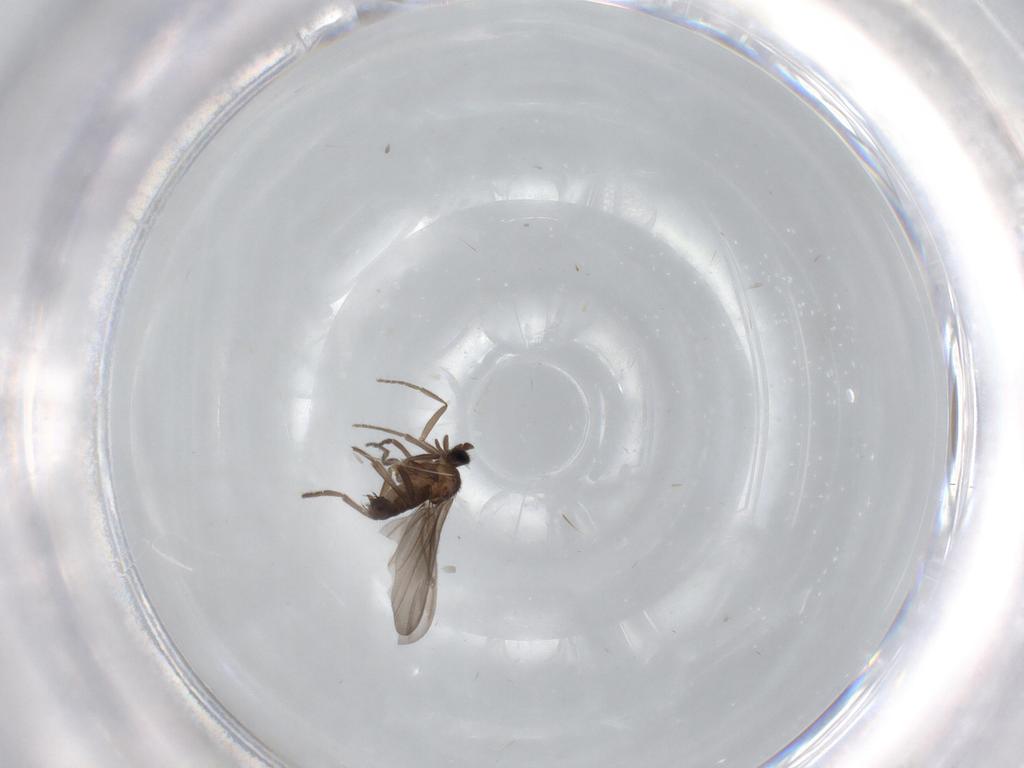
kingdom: Animalia
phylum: Arthropoda
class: Insecta
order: Diptera
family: Phoridae
